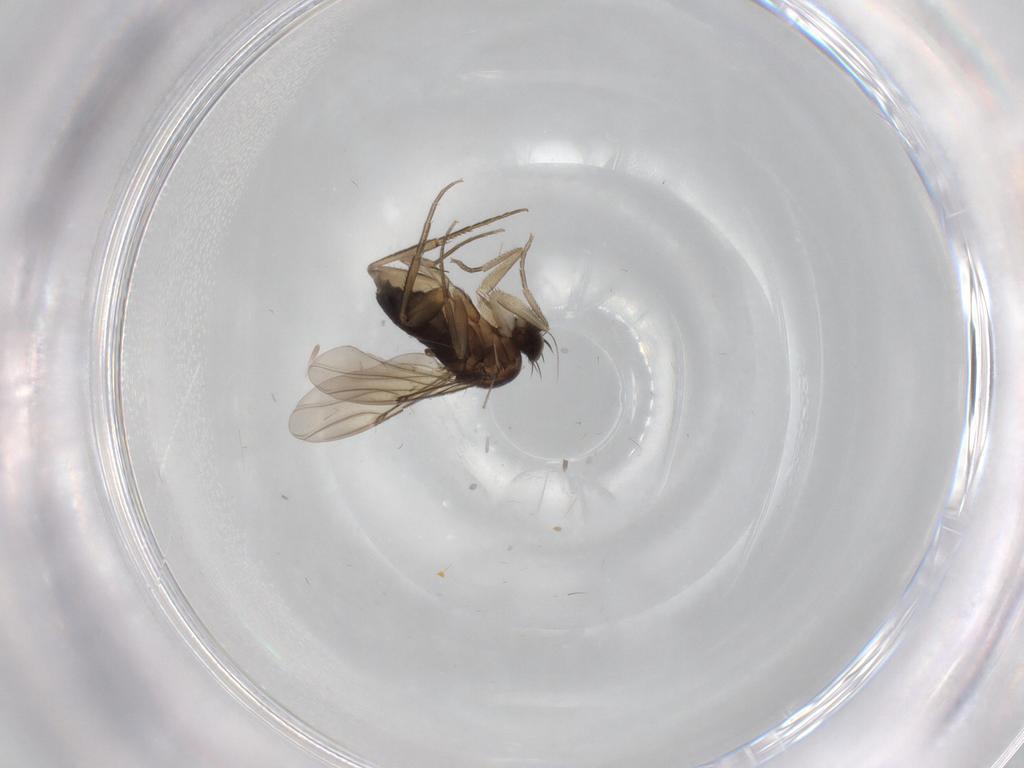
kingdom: Animalia
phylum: Arthropoda
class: Insecta
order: Diptera
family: Phoridae
